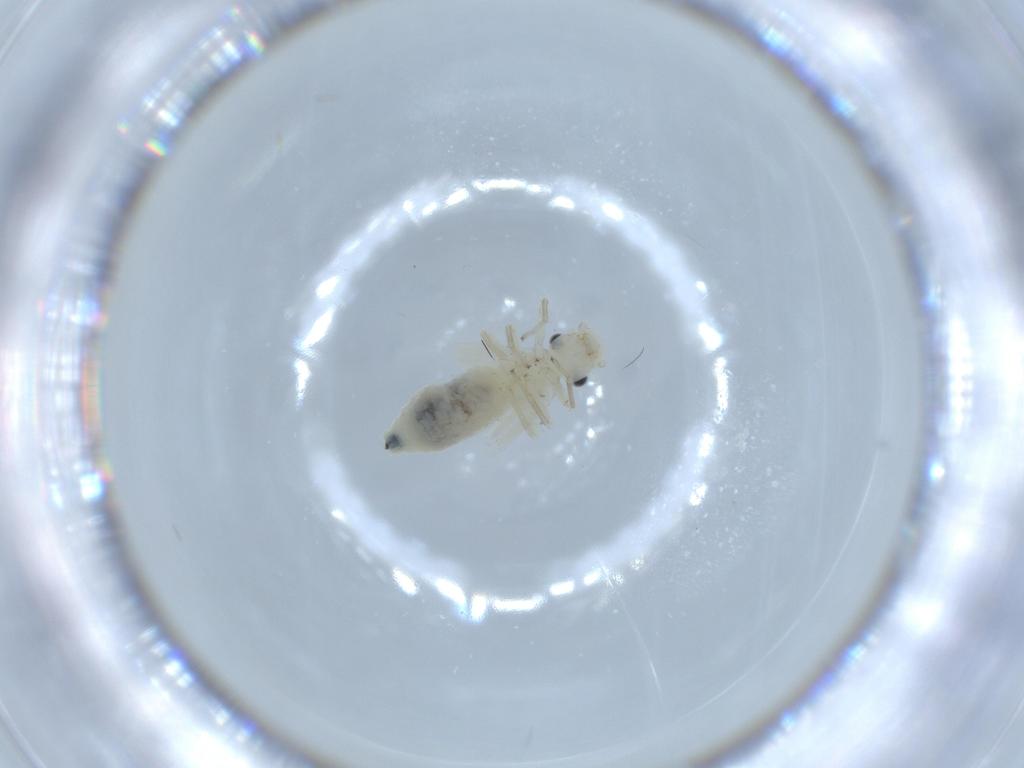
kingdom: Animalia
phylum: Arthropoda
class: Insecta
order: Psocodea
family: Caeciliusidae
